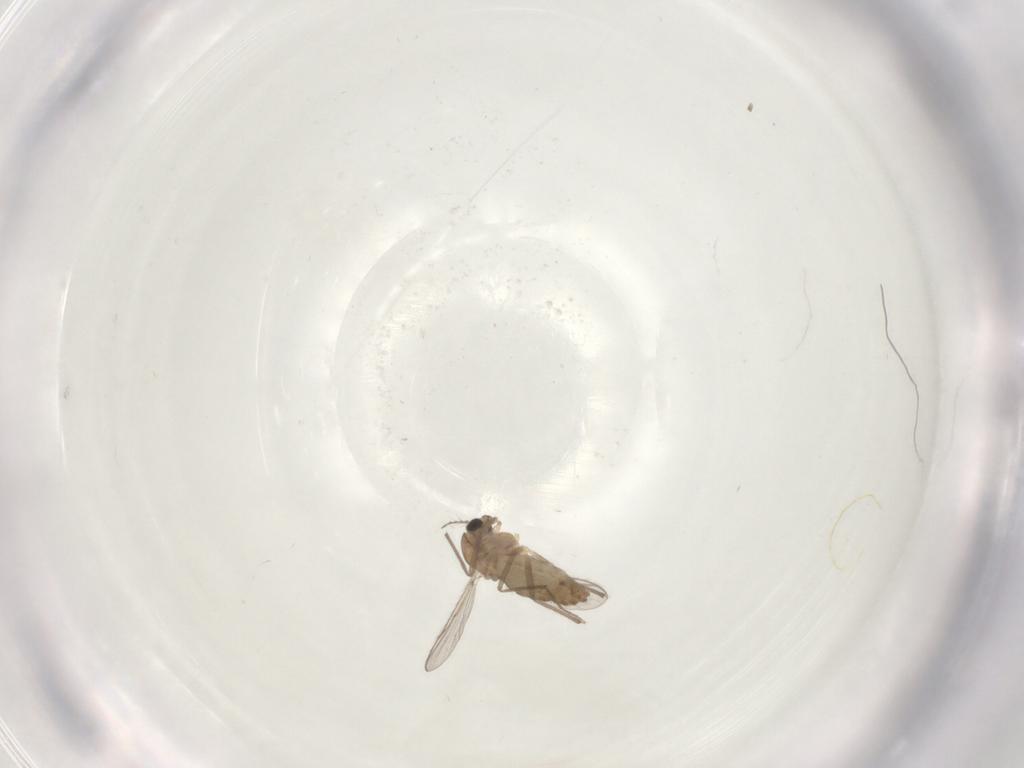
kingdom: Animalia
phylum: Arthropoda
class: Insecta
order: Diptera
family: Chironomidae
